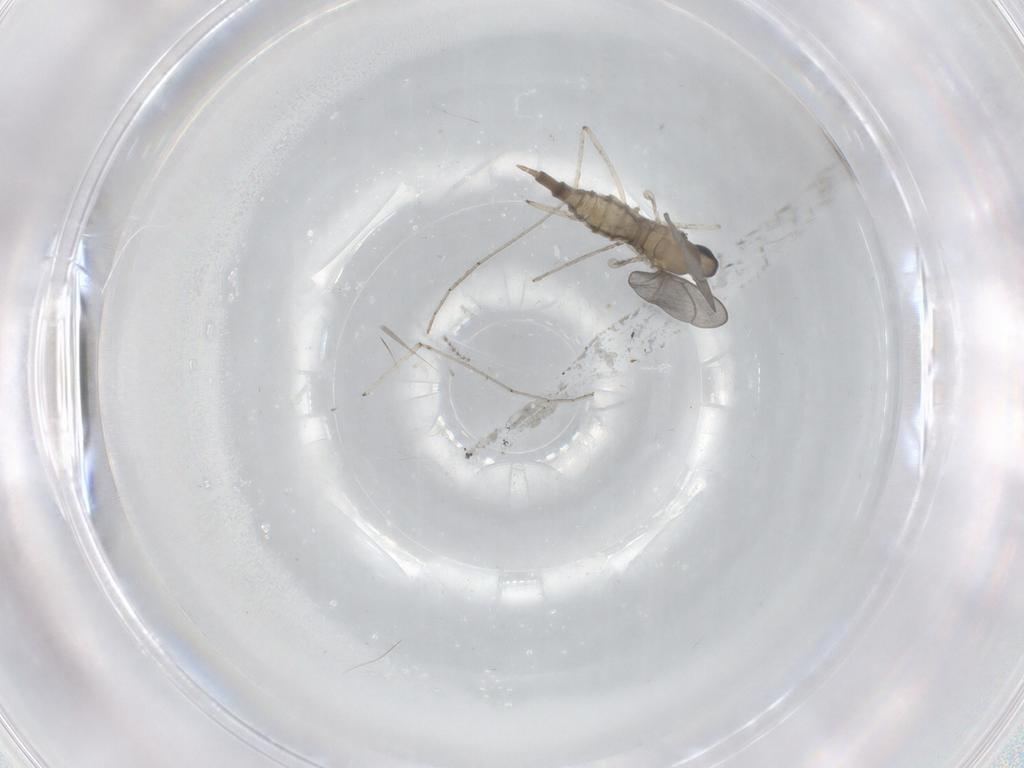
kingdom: Animalia
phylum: Arthropoda
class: Insecta
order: Diptera
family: Cecidomyiidae
